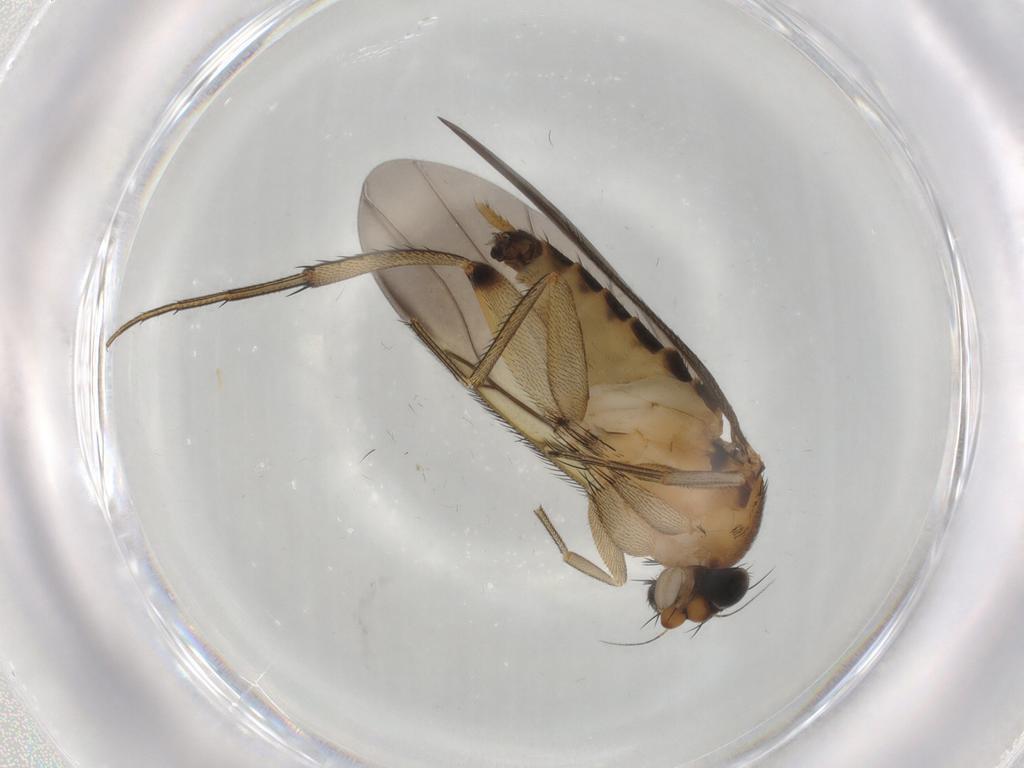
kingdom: Animalia
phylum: Arthropoda
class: Insecta
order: Diptera
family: Phoridae
